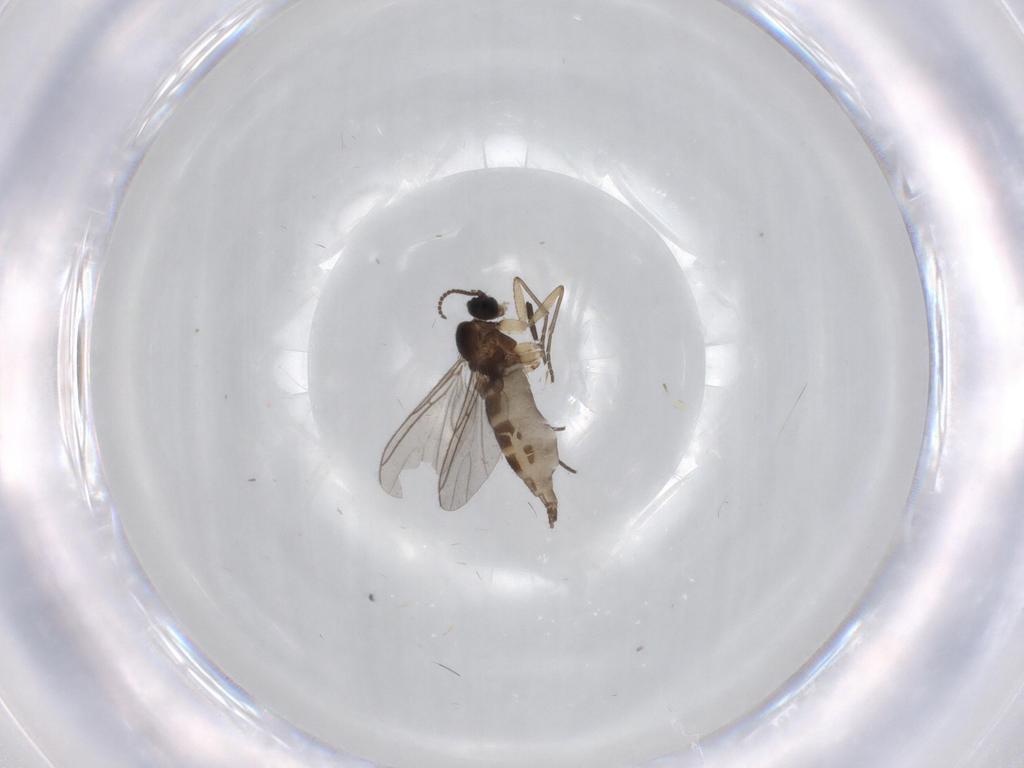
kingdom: Animalia
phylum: Arthropoda
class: Insecta
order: Diptera
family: Sciaridae
